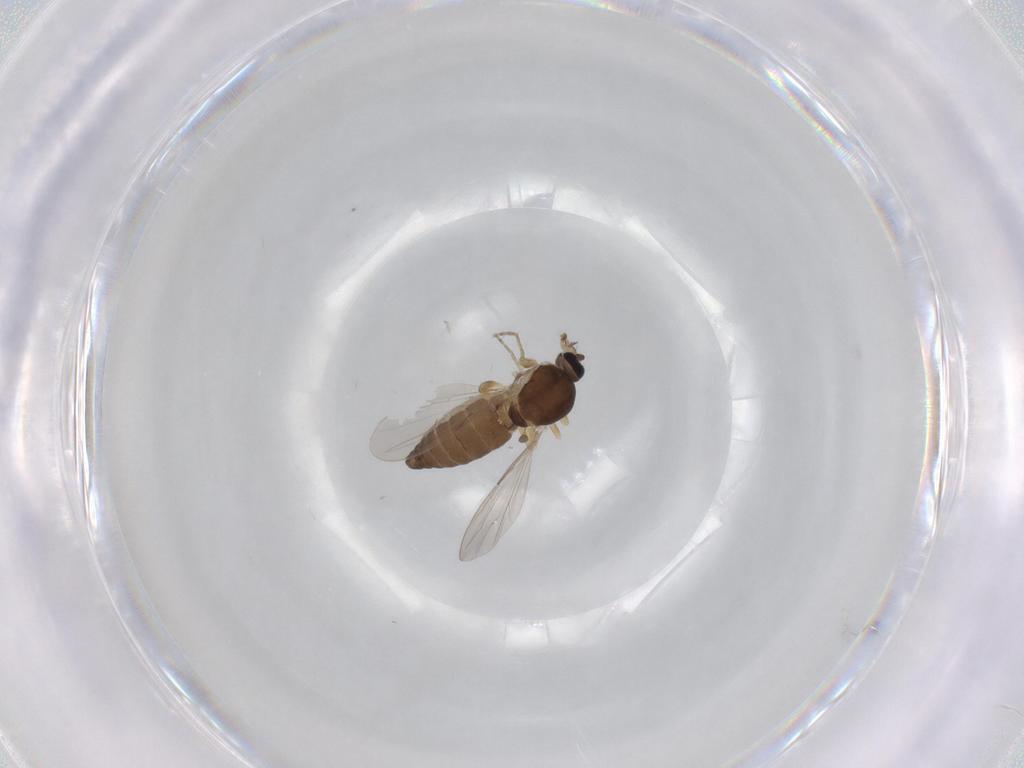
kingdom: Animalia
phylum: Arthropoda
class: Insecta
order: Diptera
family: Ceratopogonidae
